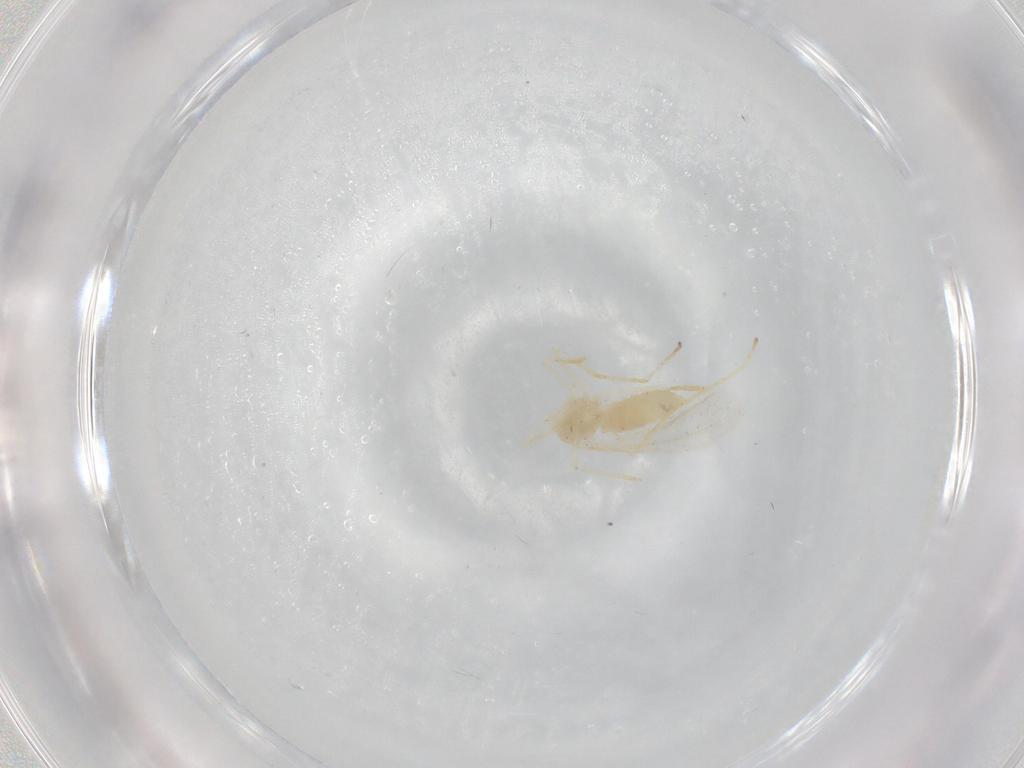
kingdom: Animalia
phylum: Arthropoda
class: Insecta
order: Diptera
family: Cecidomyiidae
